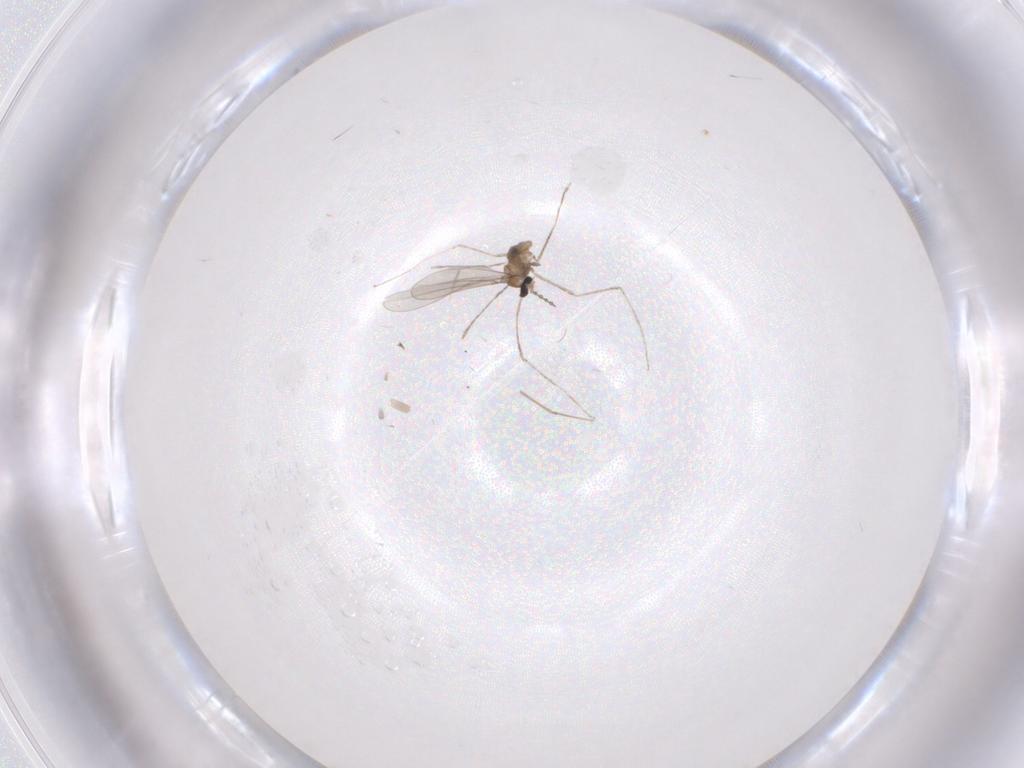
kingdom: Animalia
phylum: Arthropoda
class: Insecta
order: Diptera
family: Cecidomyiidae
